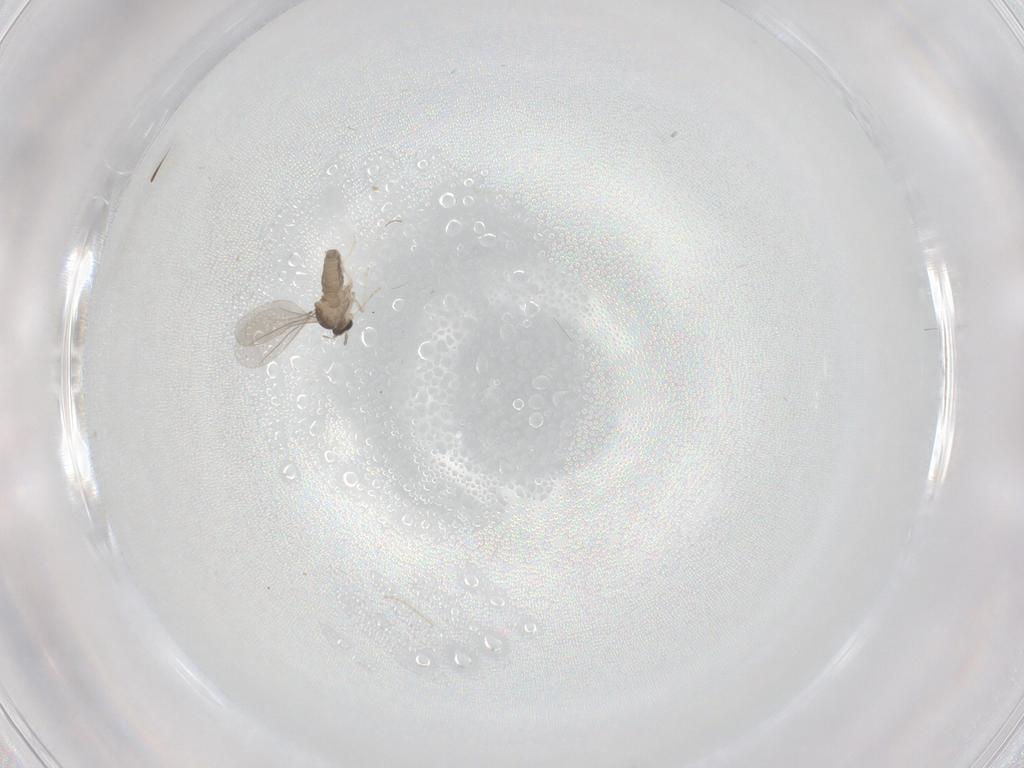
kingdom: Animalia
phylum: Arthropoda
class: Insecta
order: Diptera
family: Cecidomyiidae
